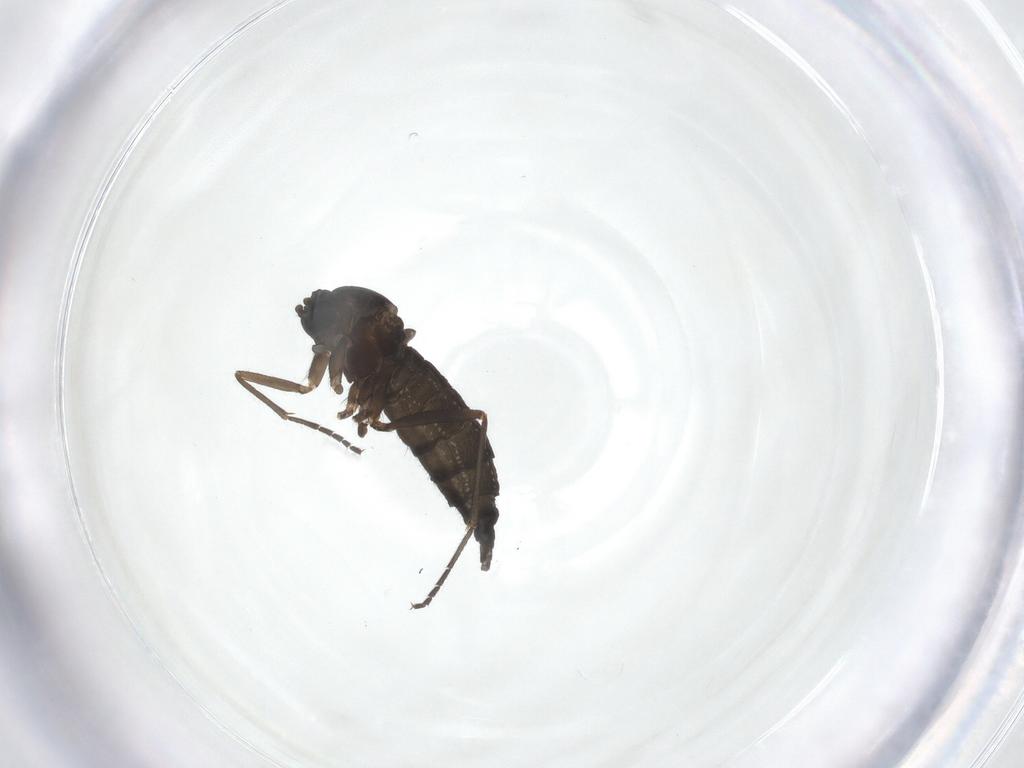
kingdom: Animalia
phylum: Arthropoda
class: Insecta
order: Diptera
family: Sciaridae
